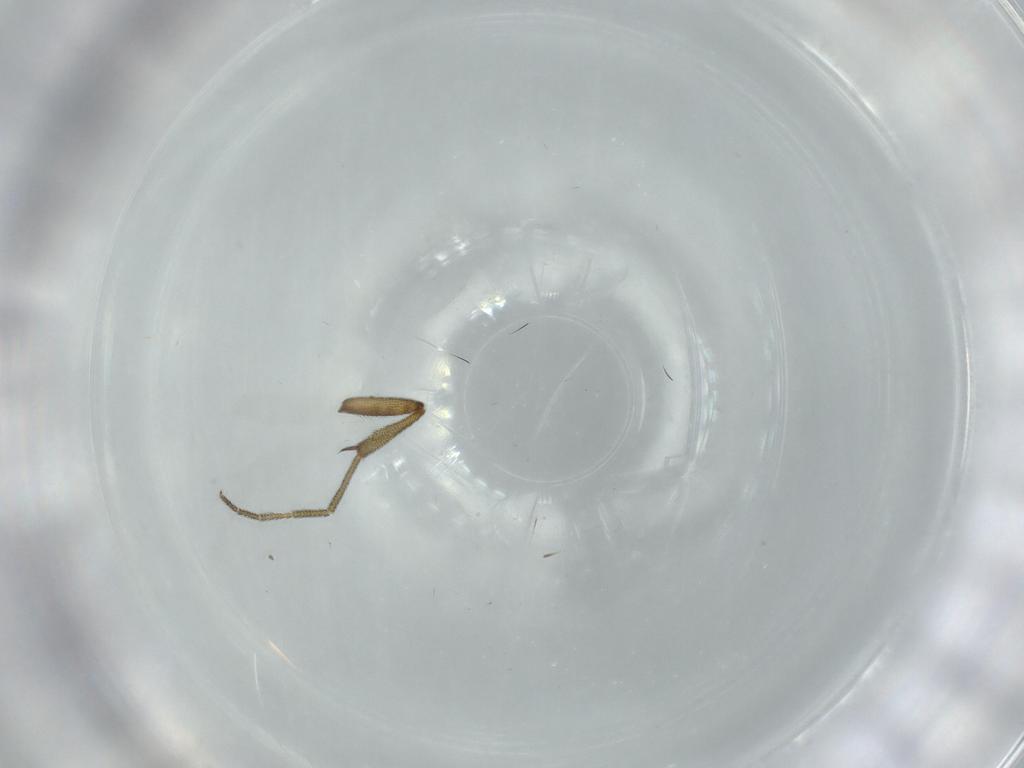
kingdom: Animalia
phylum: Arthropoda
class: Insecta
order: Diptera
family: Mycetophilidae
